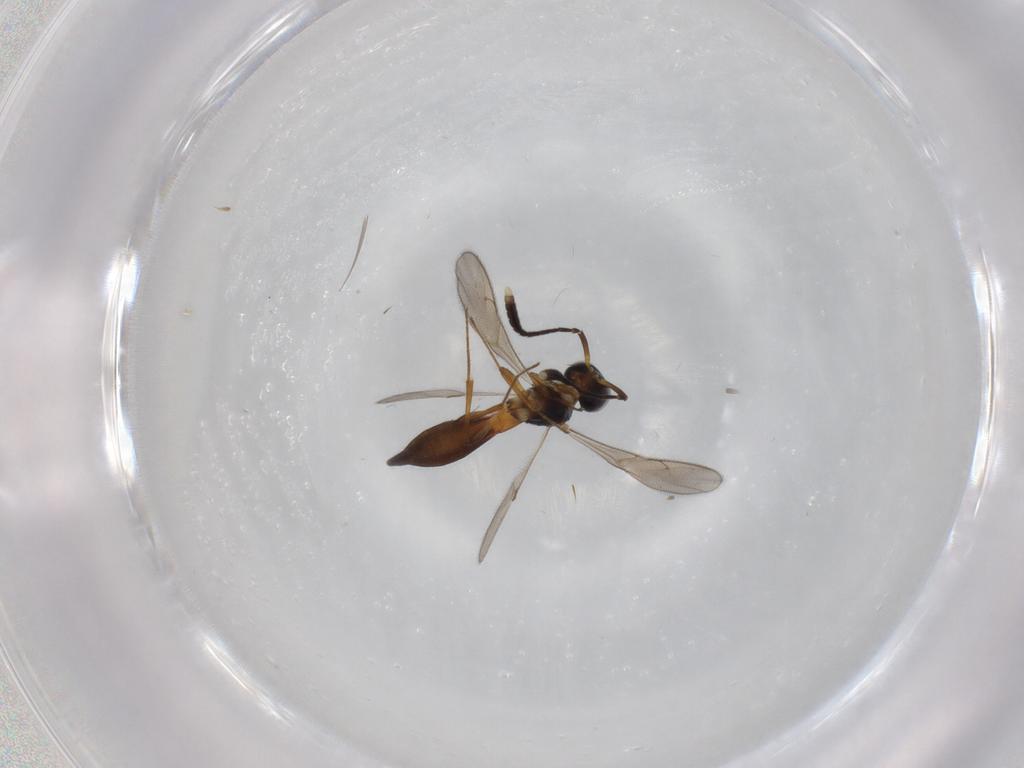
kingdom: Animalia
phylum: Arthropoda
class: Insecta
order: Hymenoptera
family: Scelionidae
